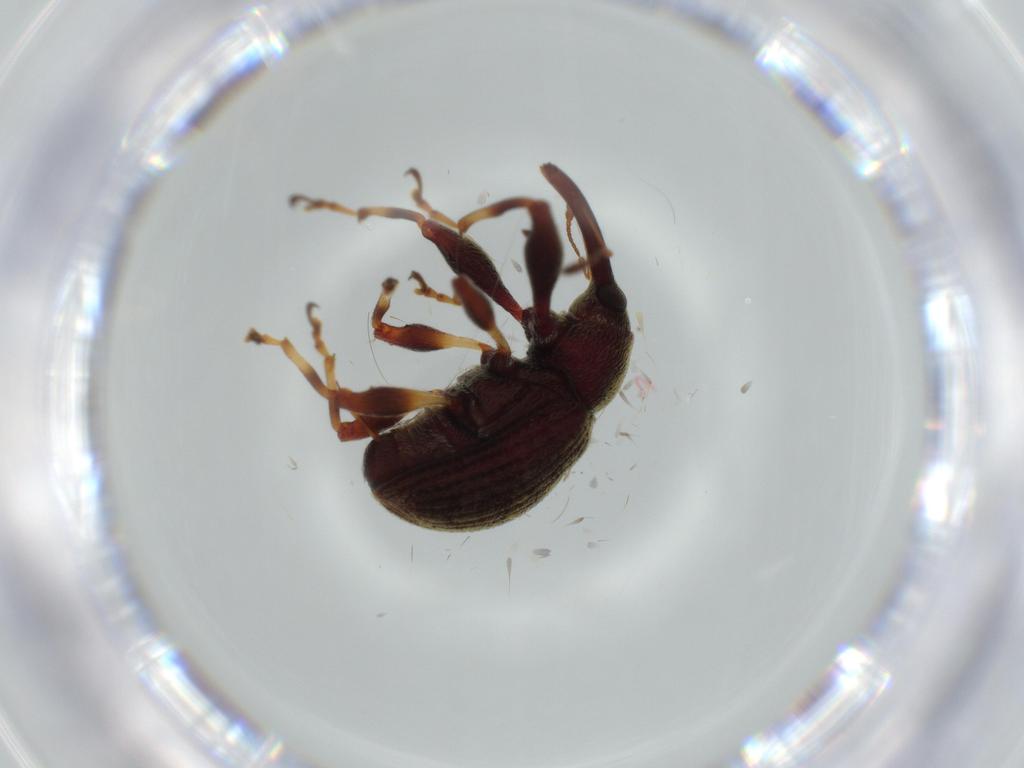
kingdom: Animalia
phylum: Arthropoda
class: Insecta
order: Coleoptera
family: Curculionidae
